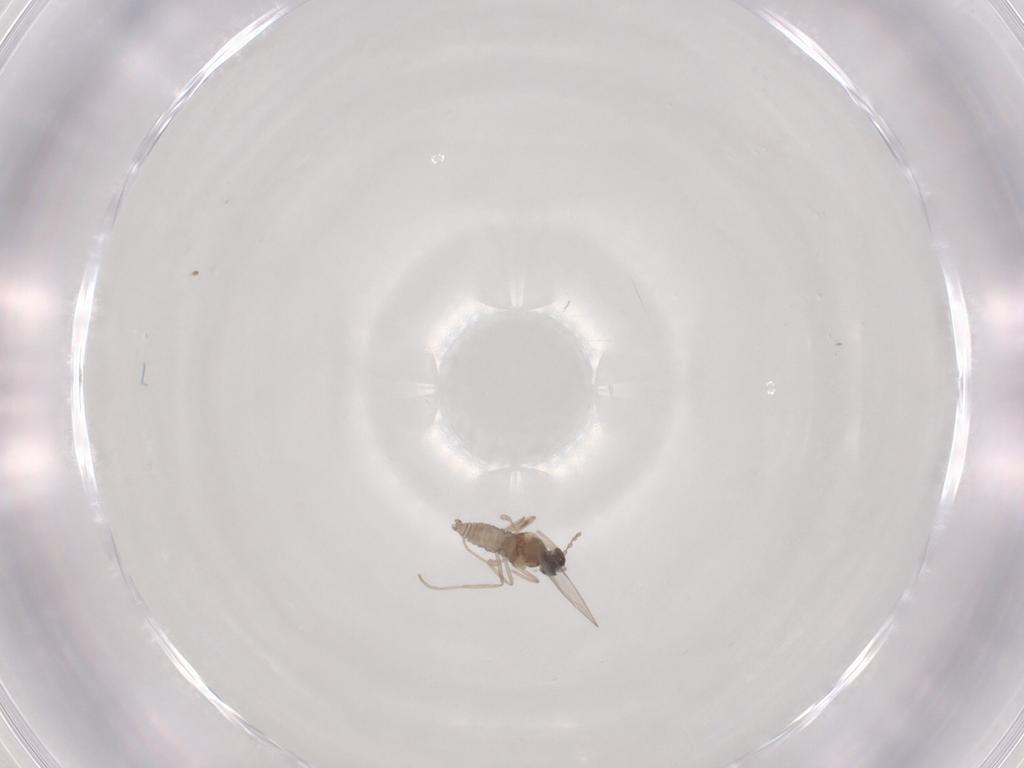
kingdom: Animalia
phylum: Arthropoda
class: Insecta
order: Diptera
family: Cecidomyiidae
